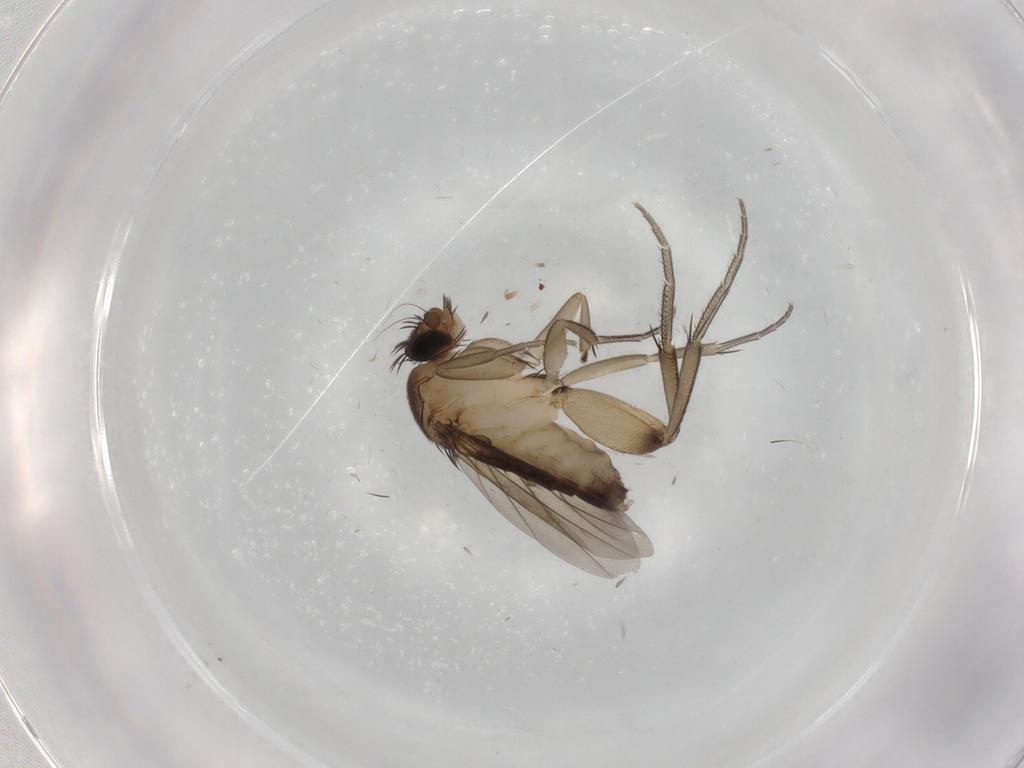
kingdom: Animalia
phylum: Arthropoda
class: Insecta
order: Diptera
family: Phoridae
